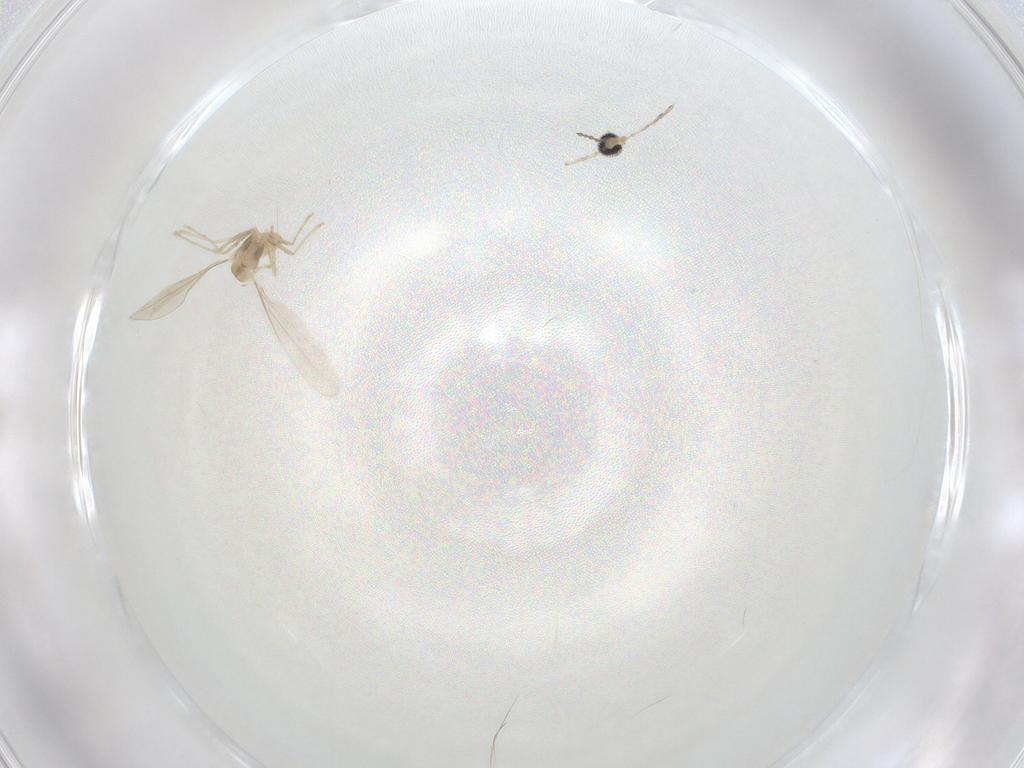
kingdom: Animalia
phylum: Arthropoda
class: Insecta
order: Diptera
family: Cecidomyiidae
